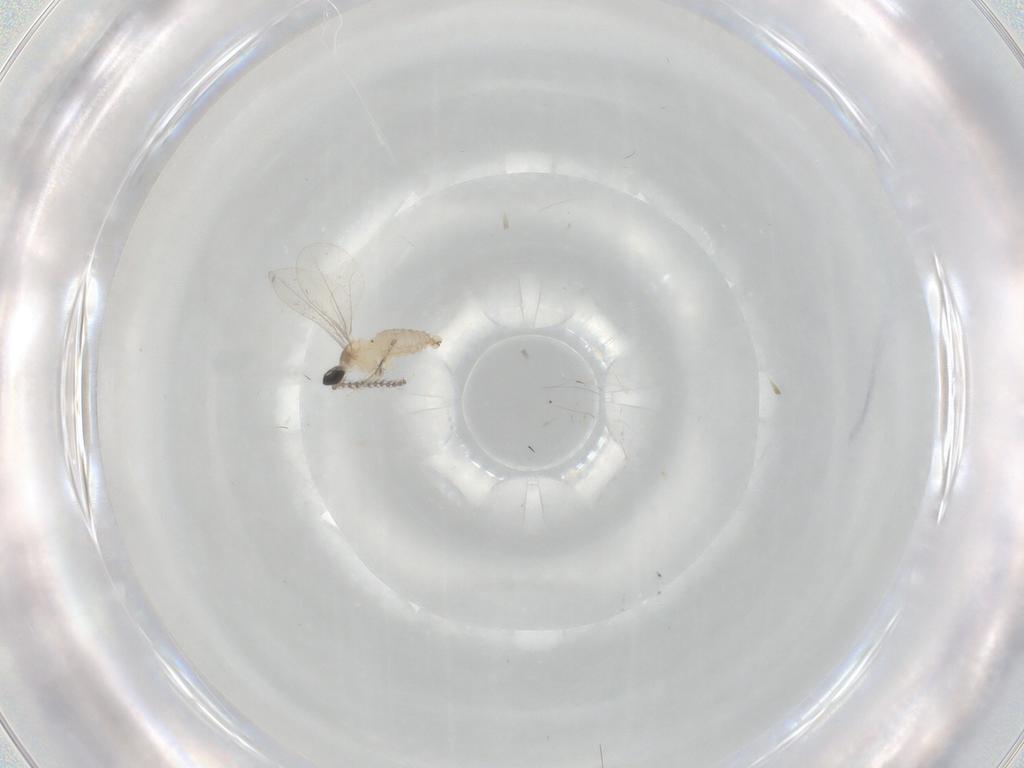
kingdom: Animalia
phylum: Arthropoda
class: Insecta
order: Diptera
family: Cecidomyiidae
